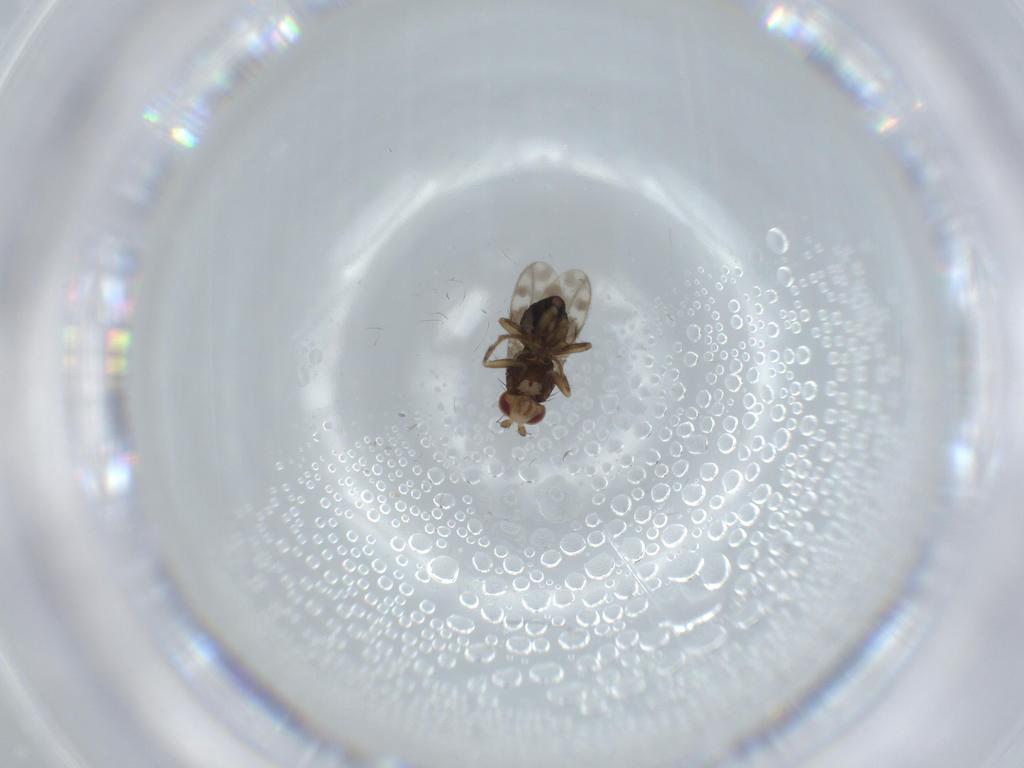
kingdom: Animalia
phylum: Arthropoda
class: Insecta
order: Diptera
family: Sphaeroceridae
